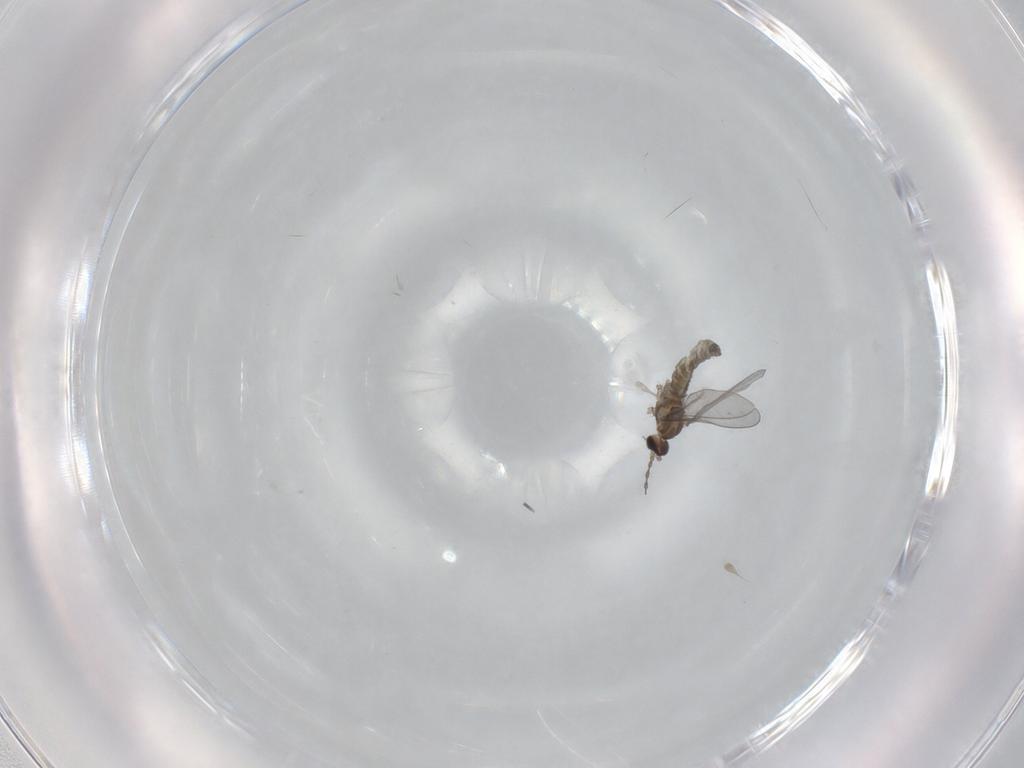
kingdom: Animalia
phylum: Arthropoda
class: Insecta
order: Diptera
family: Cecidomyiidae
